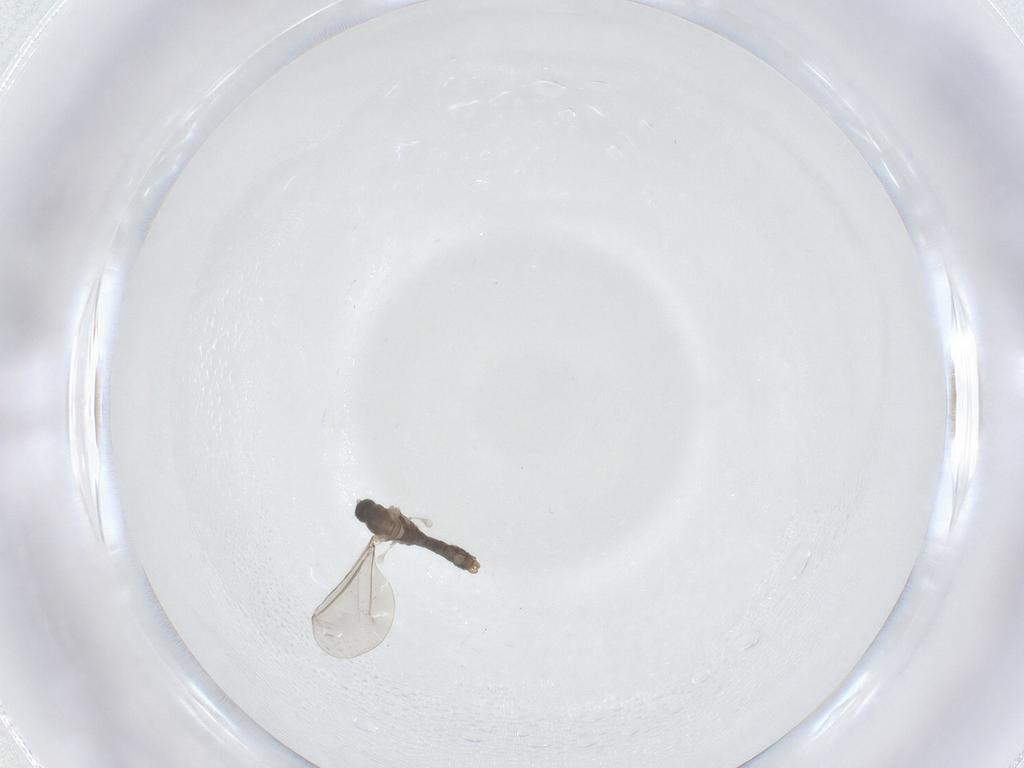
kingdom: Animalia
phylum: Arthropoda
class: Insecta
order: Diptera
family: Cecidomyiidae
